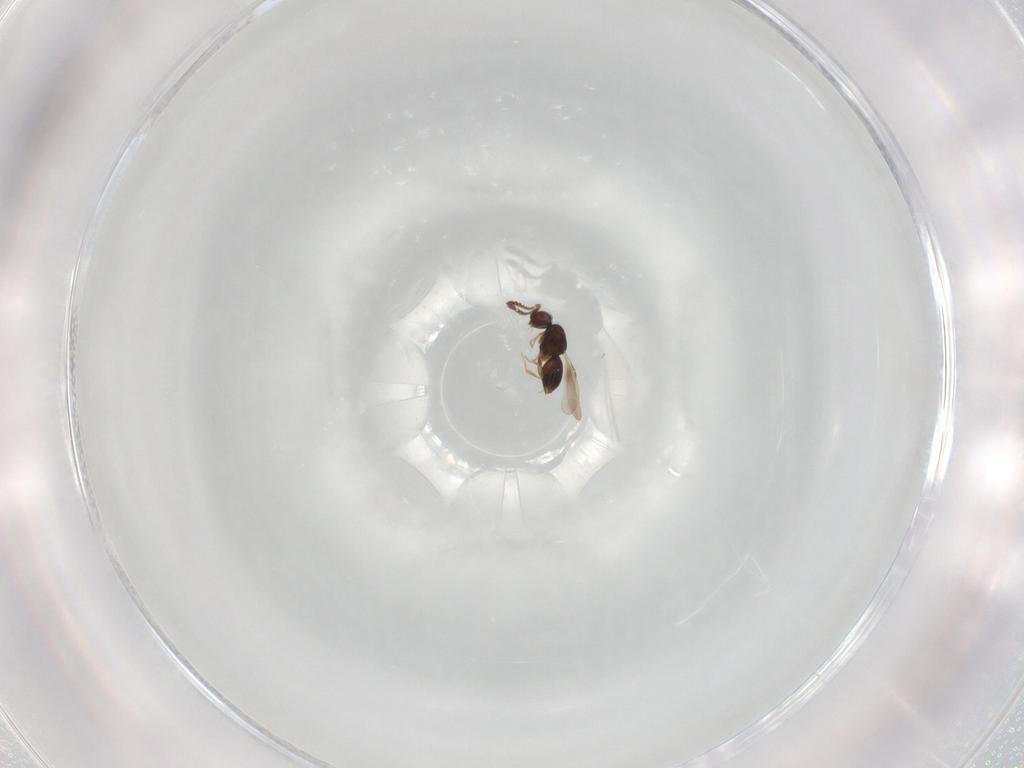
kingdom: Animalia
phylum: Arthropoda
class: Insecta
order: Hymenoptera
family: Ceraphronidae
